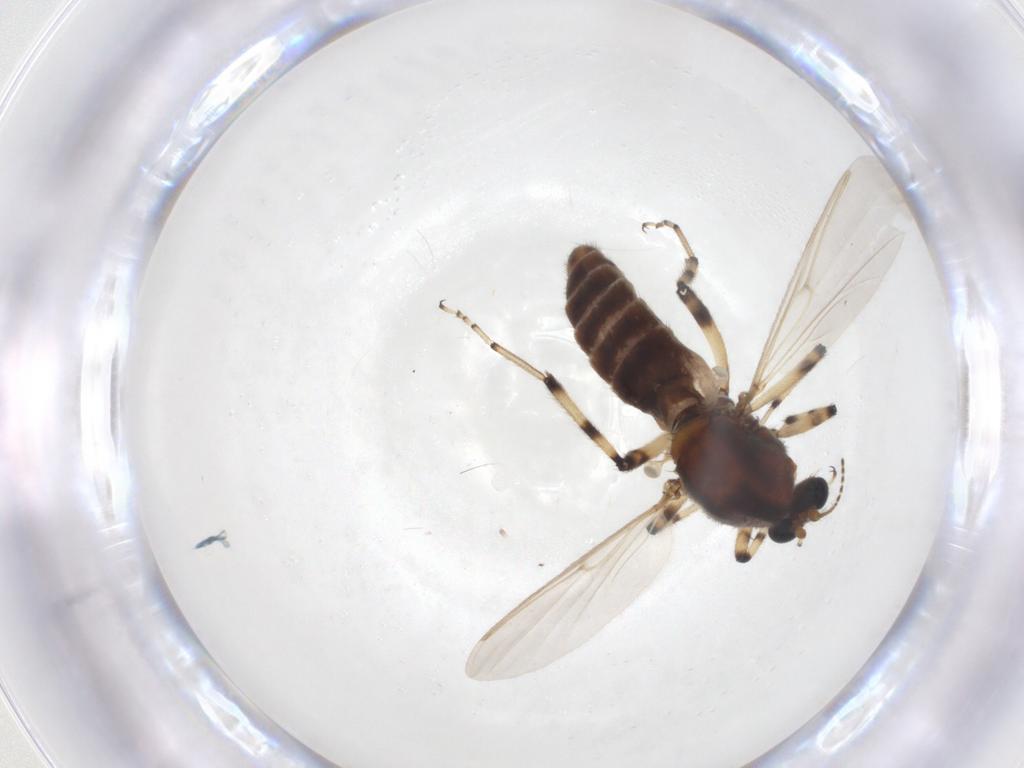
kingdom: Animalia
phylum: Arthropoda
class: Insecta
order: Diptera
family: Ceratopogonidae
